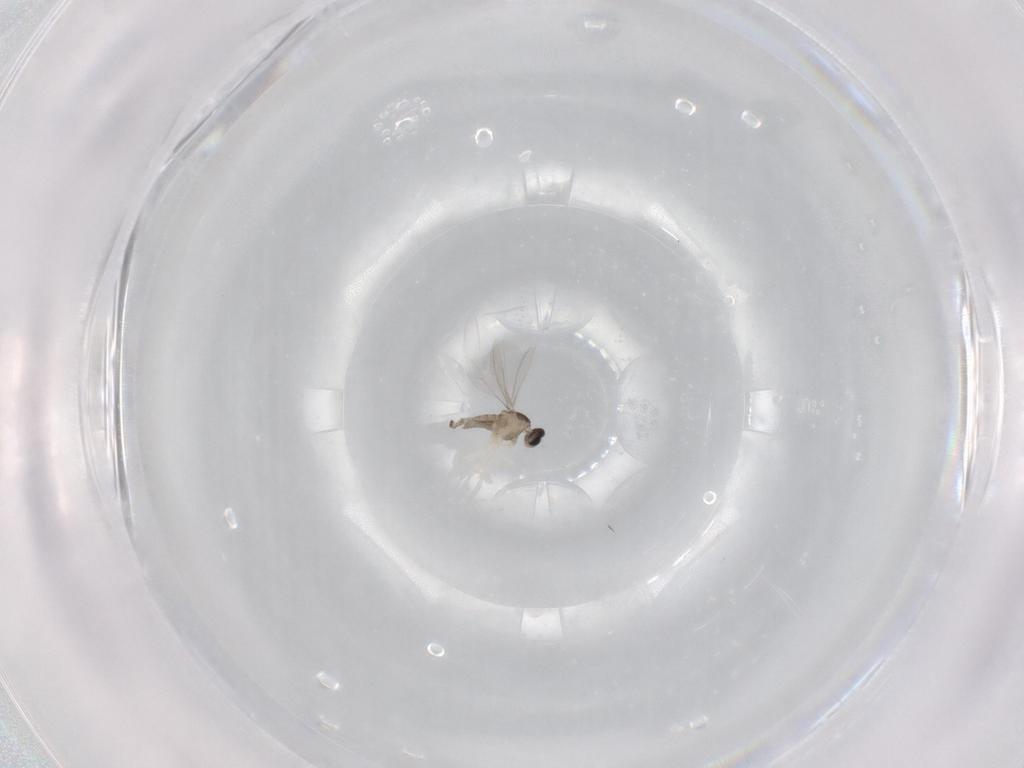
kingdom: Animalia
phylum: Arthropoda
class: Insecta
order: Diptera
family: Cecidomyiidae
